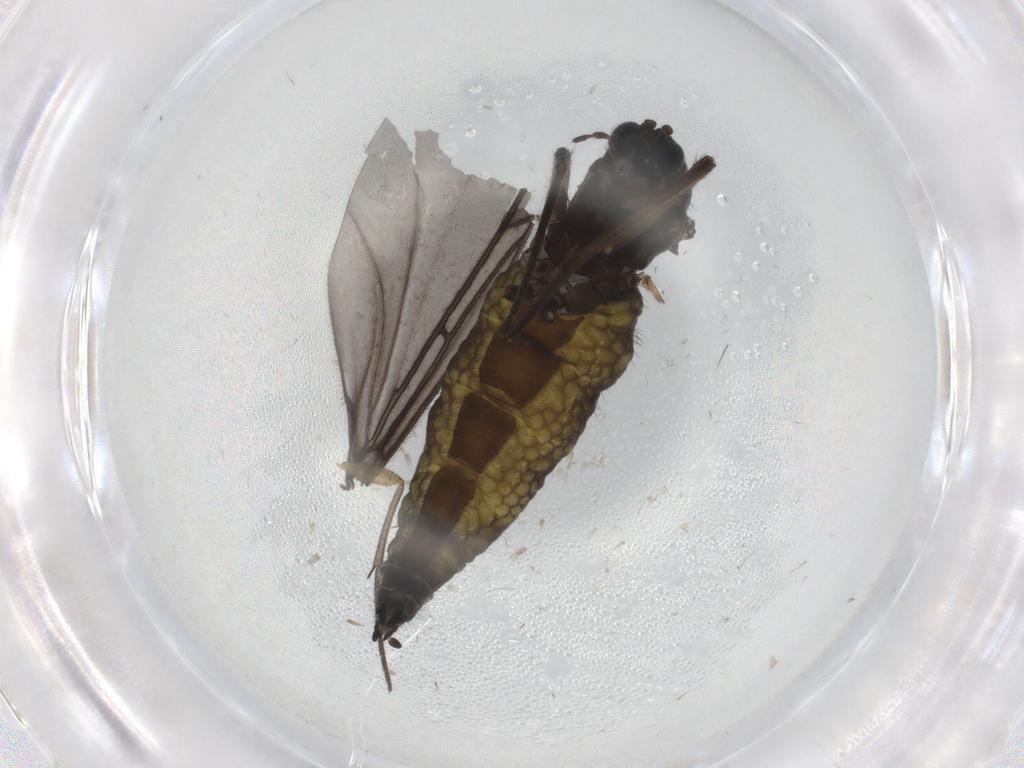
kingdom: Animalia
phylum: Arthropoda
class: Insecta
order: Diptera
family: Sciaridae
